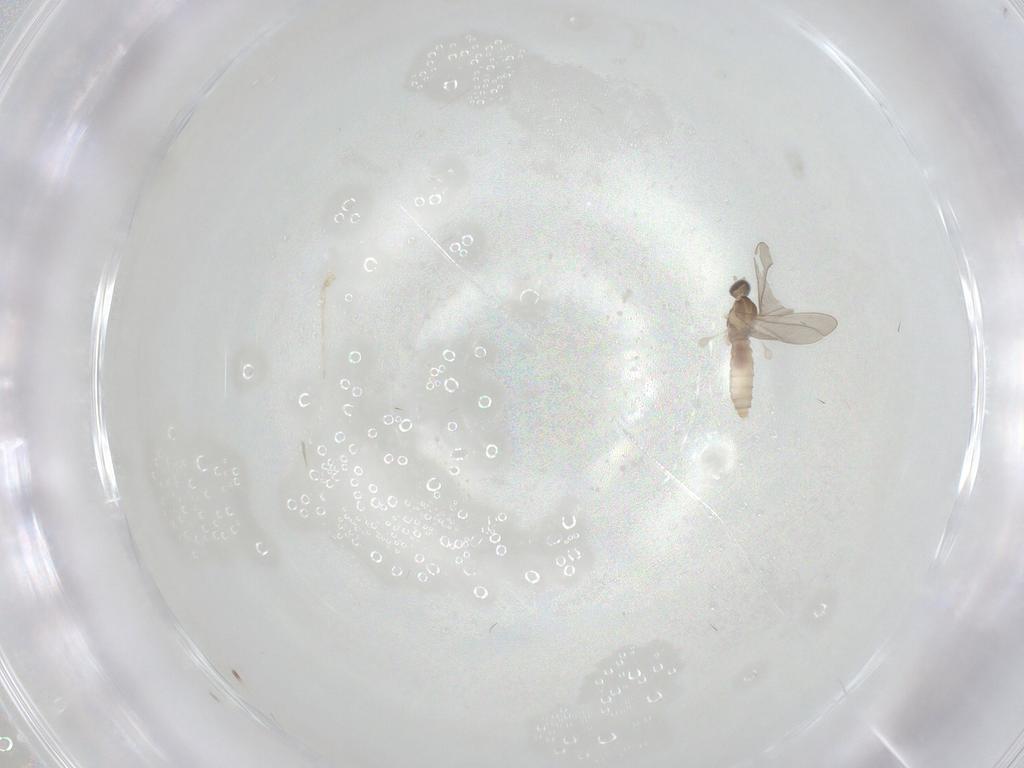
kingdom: Animalia
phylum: Arthropoda
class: Insecta
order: Diptera
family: Cecidomyiidae
